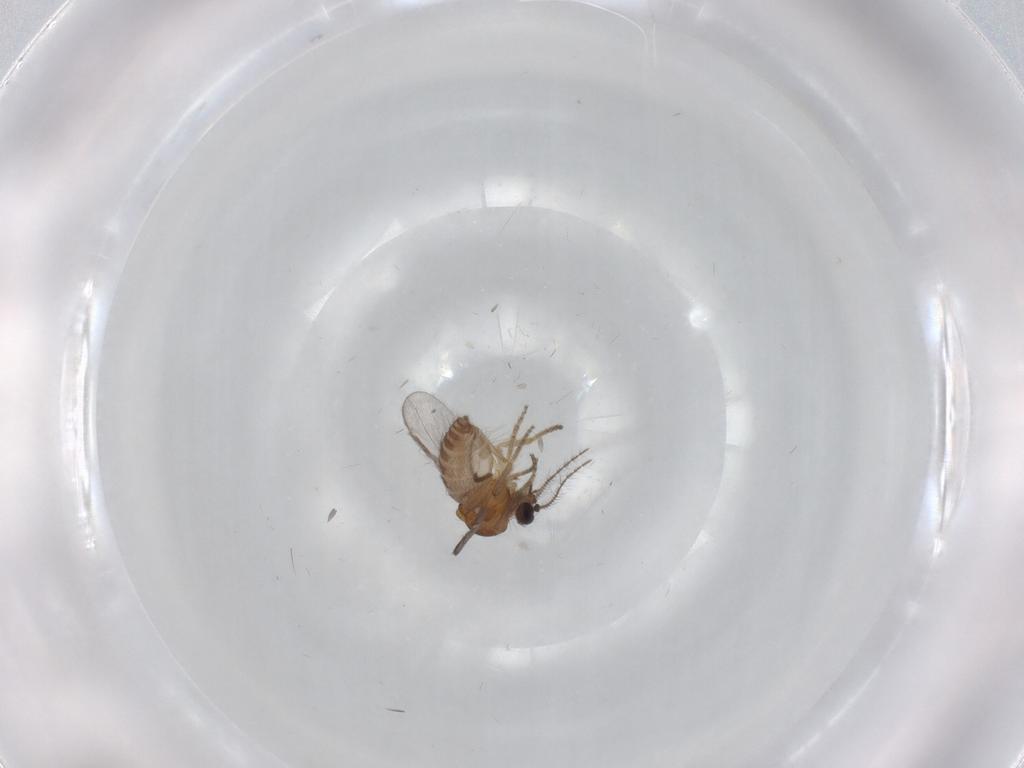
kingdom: Animalia
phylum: Arthropoda
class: Insecta
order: Diptera
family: Ceratopogonidae
